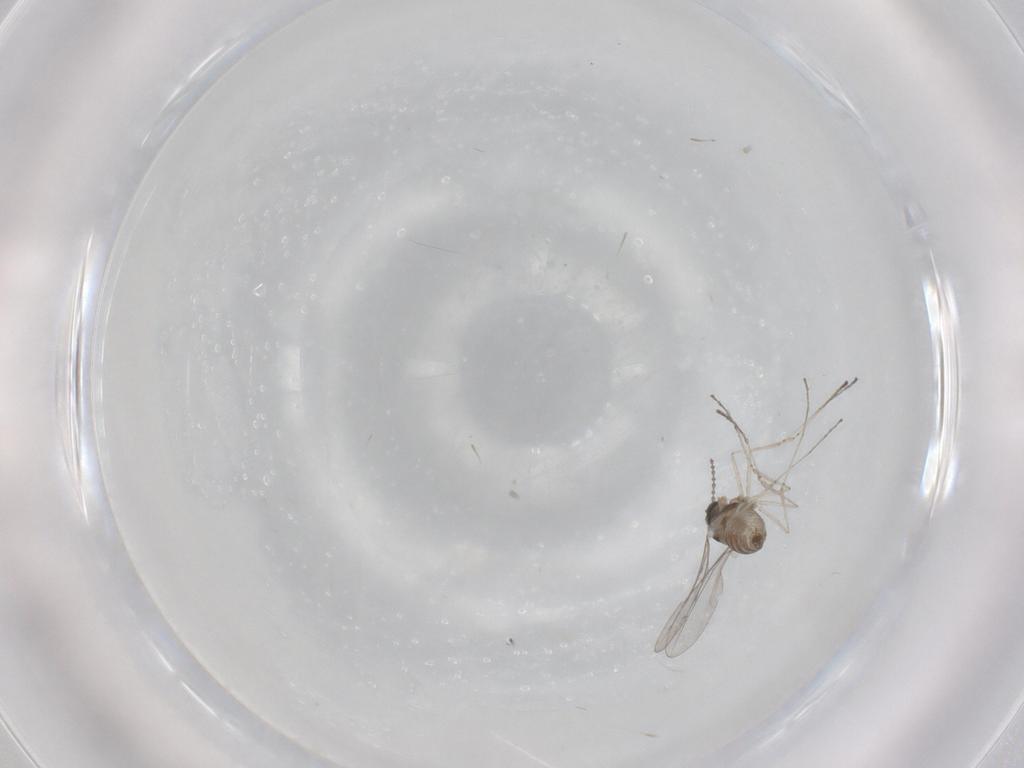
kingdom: Animalia
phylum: Arthropoda
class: Insecta
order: Diptera
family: Cecidomyiidae
